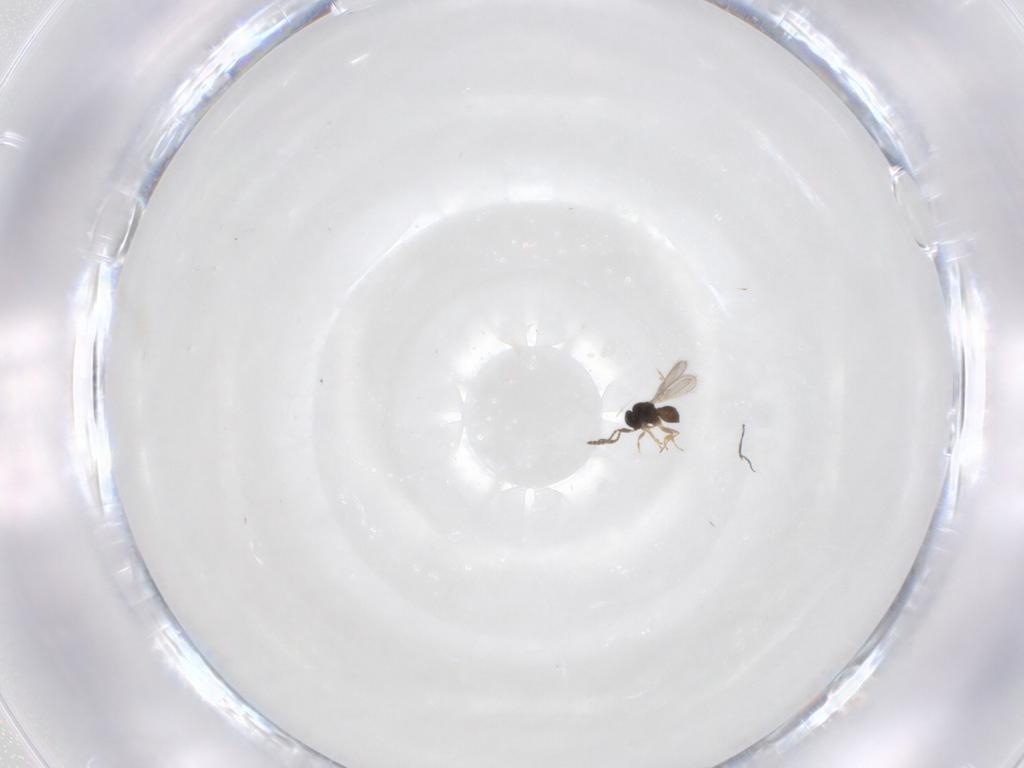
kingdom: Animalia
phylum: Arthropoda
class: Insecta
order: Hymenoptera
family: Scelionidae
